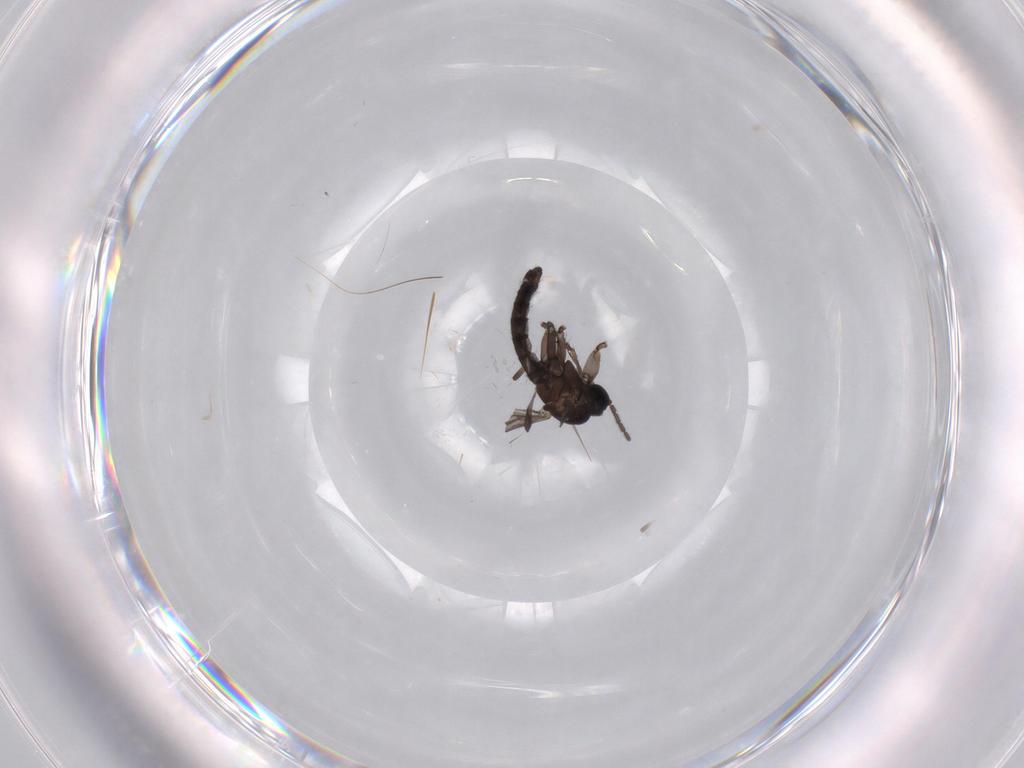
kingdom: Animalia
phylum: Arthropoda
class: Insecta
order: Diptera
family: Sciaridae
